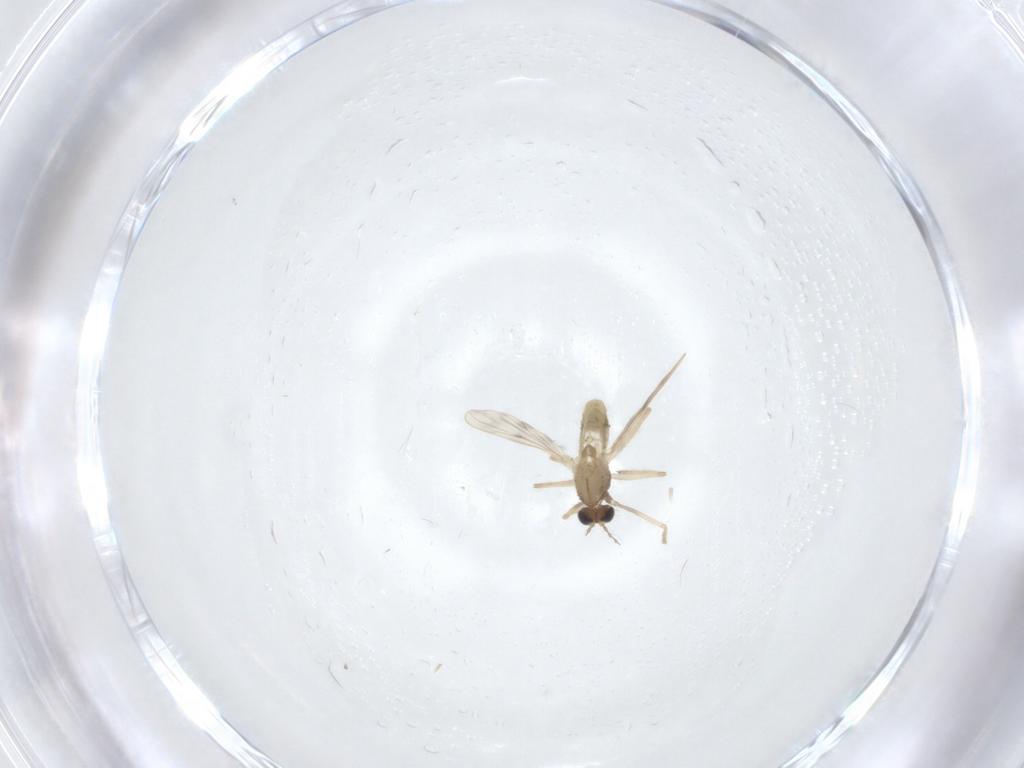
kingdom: Animalia
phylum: Arthropoda
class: Insecta
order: Diptera
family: Chironomidae
